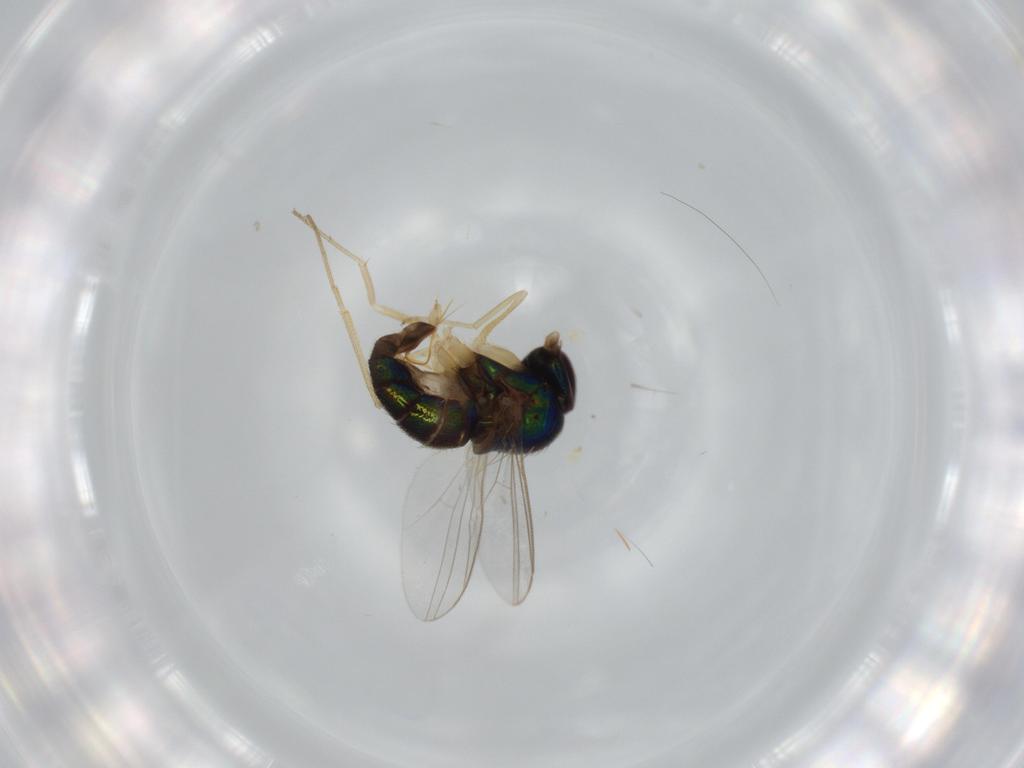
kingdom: Animalia
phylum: Arthropoda
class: Insecta
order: Diptera
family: Dolichopodidae
